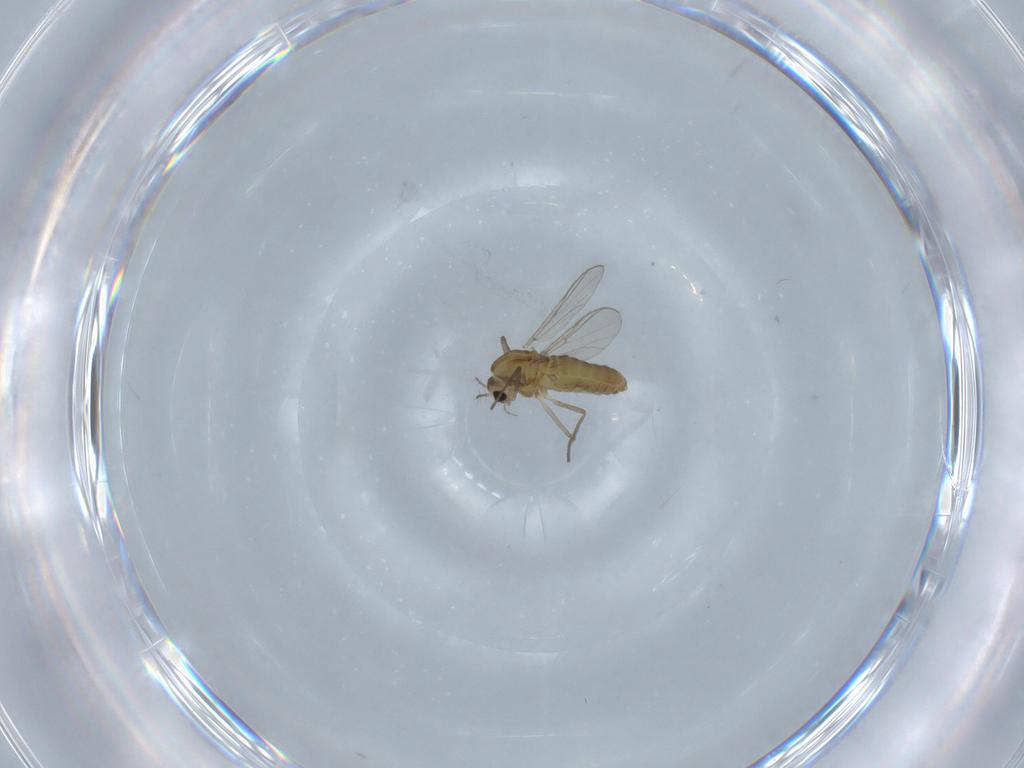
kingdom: Animalia
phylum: Arthropoda
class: Insecta
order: Diptera
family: Chironomidae
